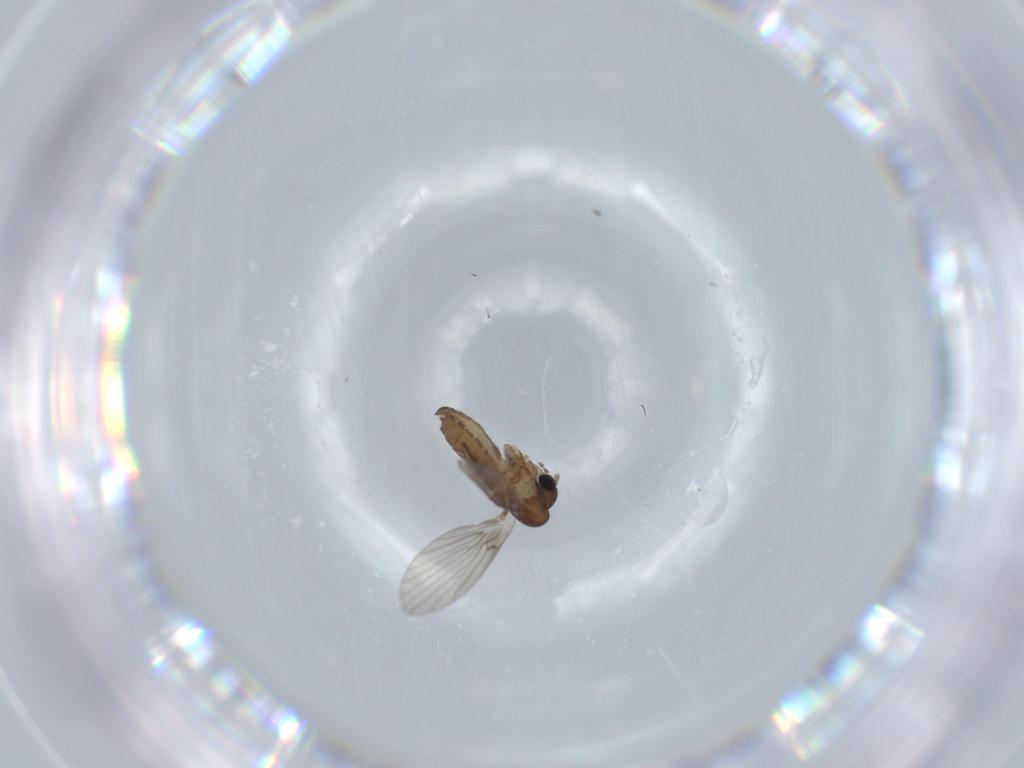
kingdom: Animalia
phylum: Arthropoda
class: Insecta
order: Diptera
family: Psychodidae
